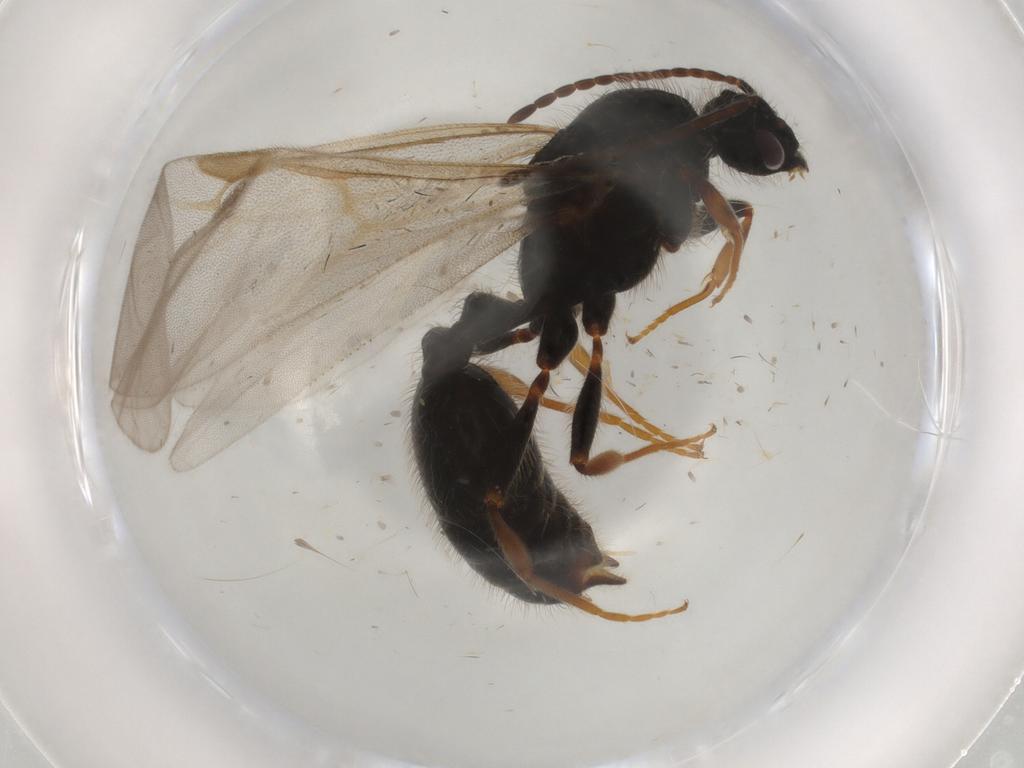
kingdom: Animalia
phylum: Arthropoda
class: Insecta
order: Hymenoptera
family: Formicidae
